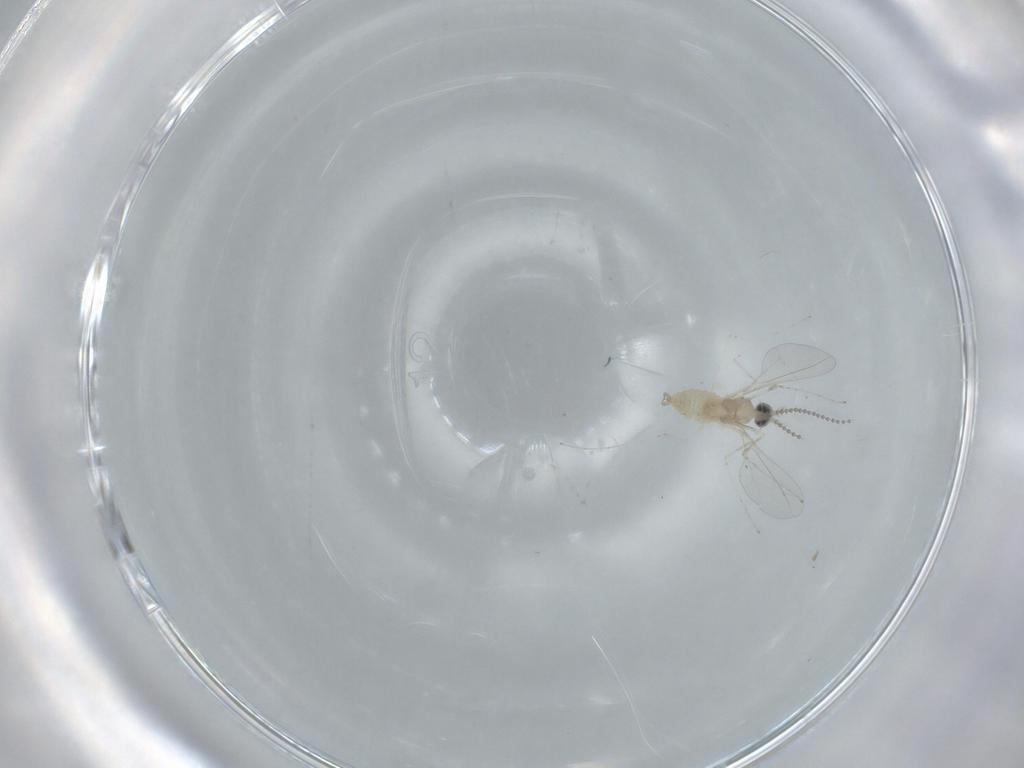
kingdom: Animalia
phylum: Arthropoda
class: Insecta
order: Diptera
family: Cecidomyiidae
